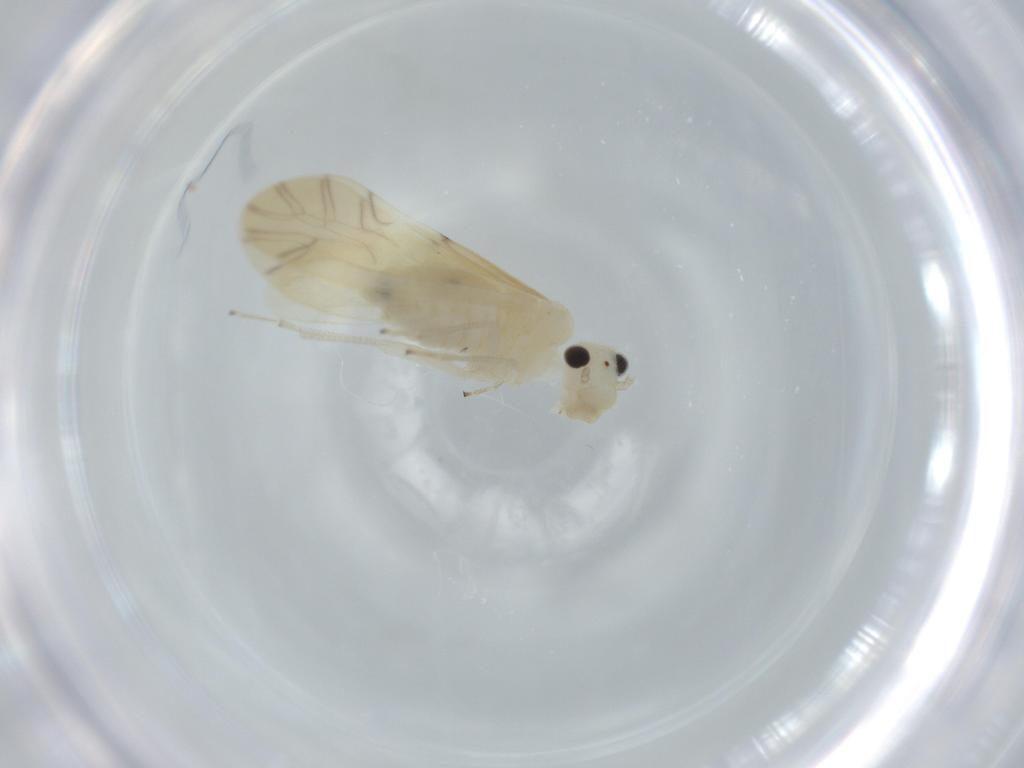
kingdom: Animalia
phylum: Arthropoda
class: Insecta
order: Psocodea
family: Caeciliusidae
